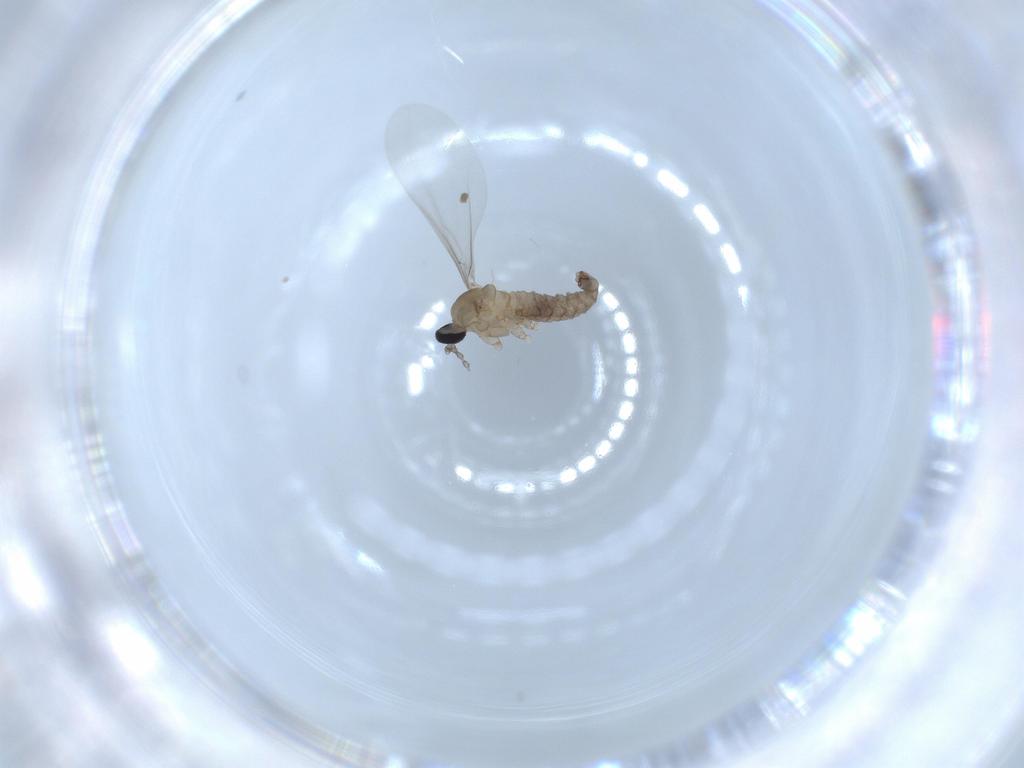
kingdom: Animalia
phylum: Arthropoda
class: Insecta
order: Diptera
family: Cecidomyiidae
